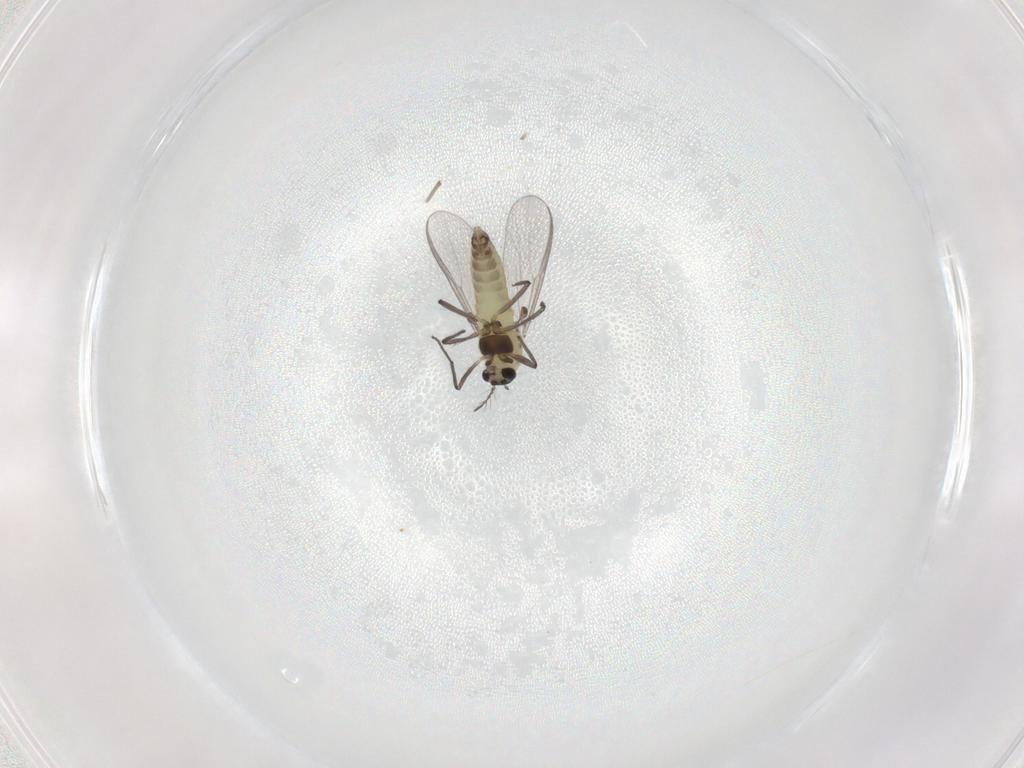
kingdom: Animalia
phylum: Arthropoda
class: Insecta
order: Diptera
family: Chironomidae
